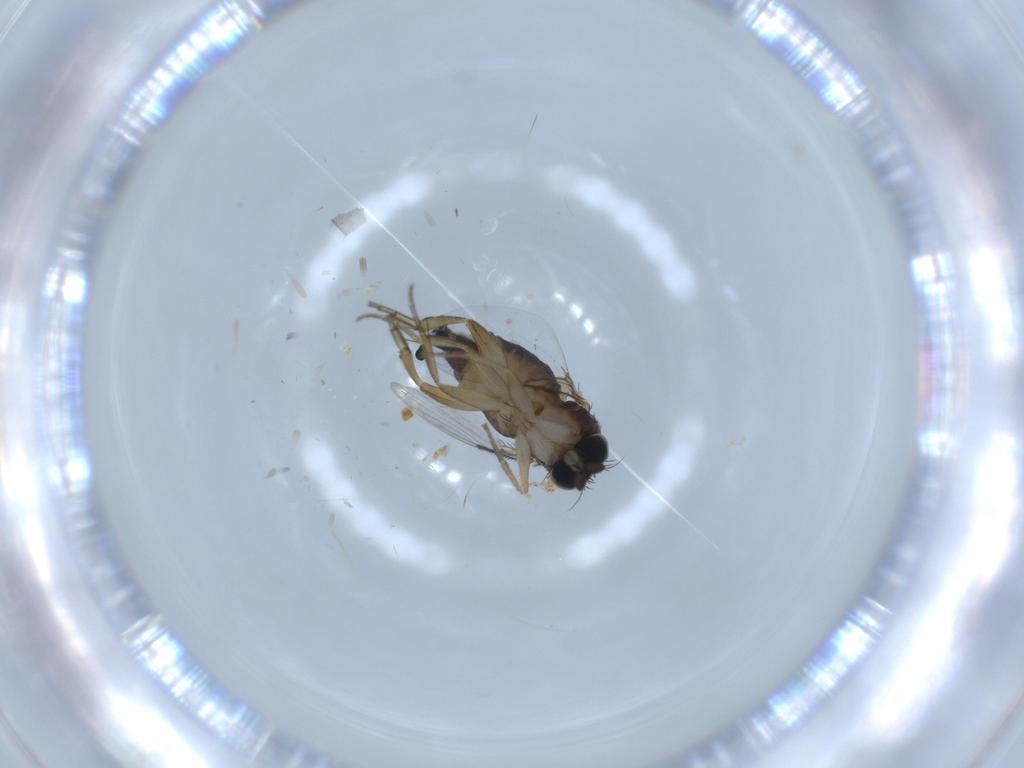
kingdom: Animalia
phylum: Arthropoda
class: Insecta
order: Diptera
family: Phoridae
